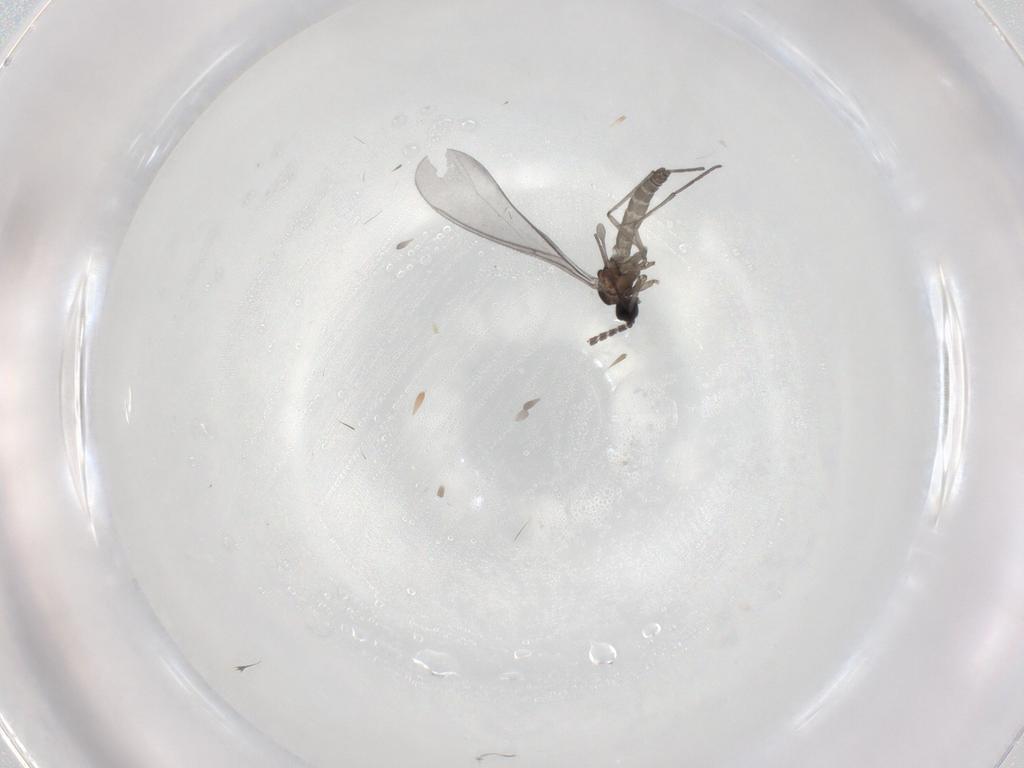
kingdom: Animalia
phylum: Arthropoda
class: Insecta
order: Diptera
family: Sciaridae
